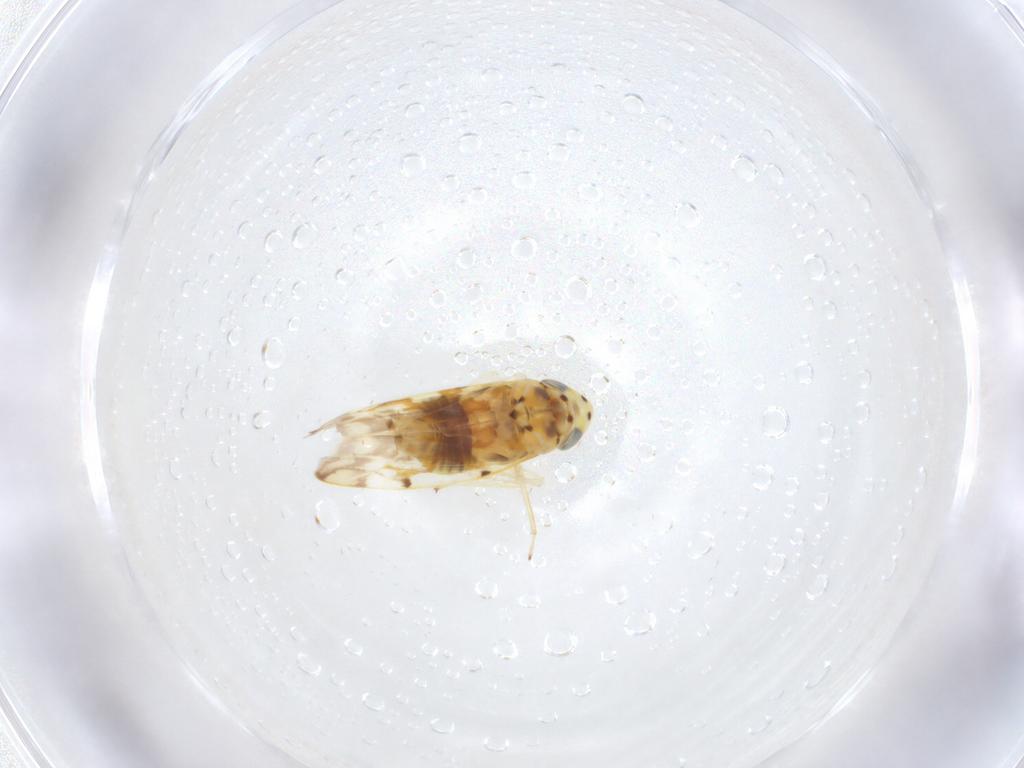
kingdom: Animalia
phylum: Arthropoda
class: Insecta
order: Hemiptera
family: Cicadellidae
